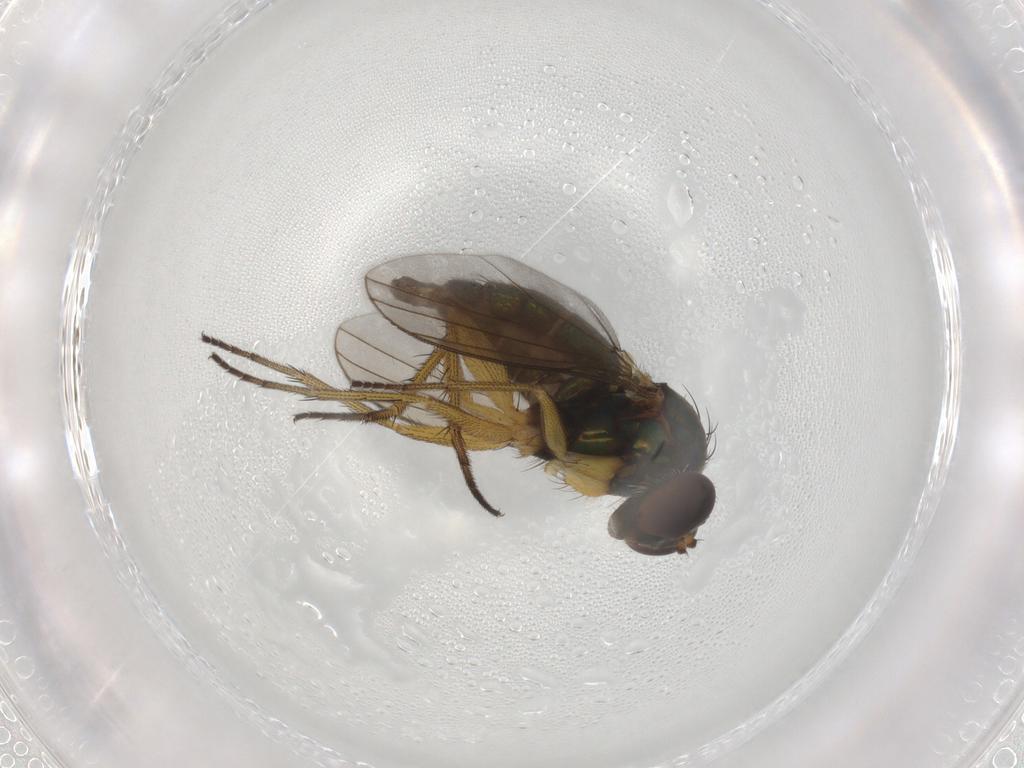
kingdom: Animalia
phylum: Arthropoda
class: Insecta
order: Diptera
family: Dolichopodidae
